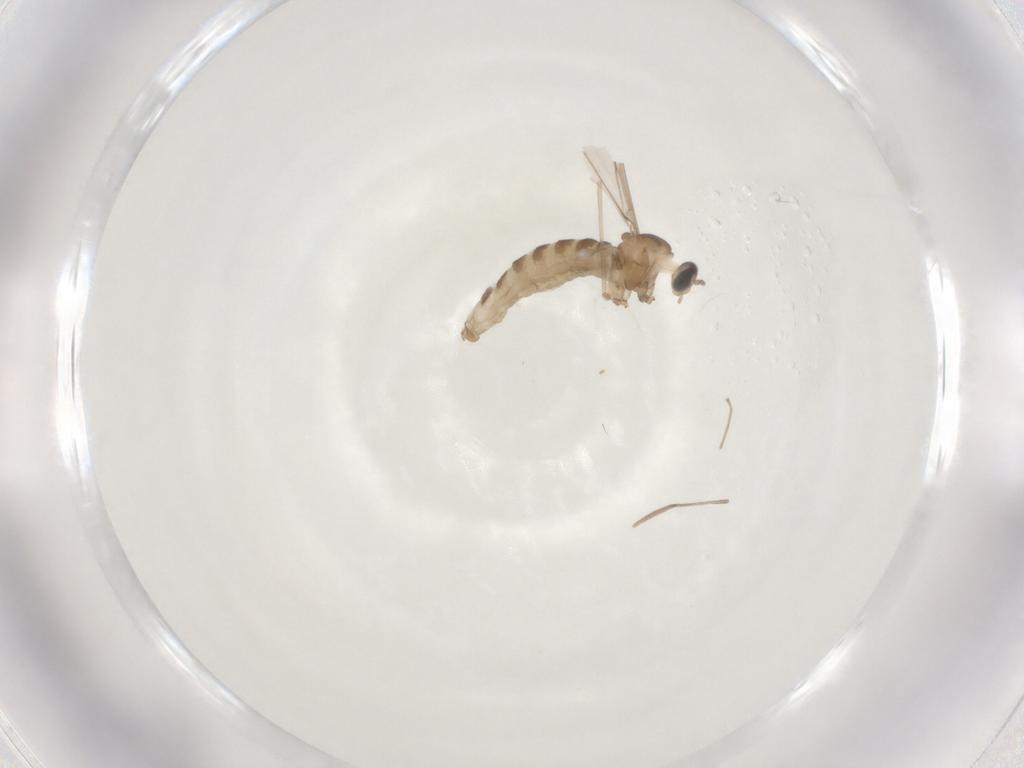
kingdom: Animalia
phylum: Arthropoda
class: Insecta
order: Diptera
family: Cecidomyiidae
